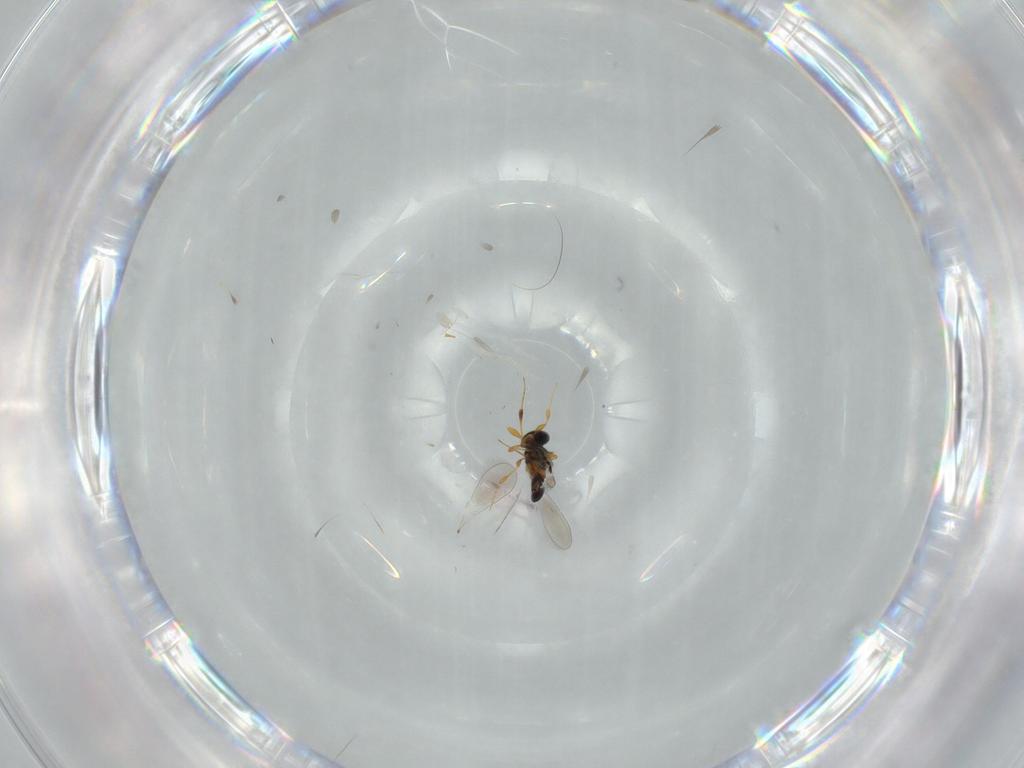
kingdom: Animalia
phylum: Arthropoda
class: Insecta
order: Hymenoptera
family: Platygastridae
